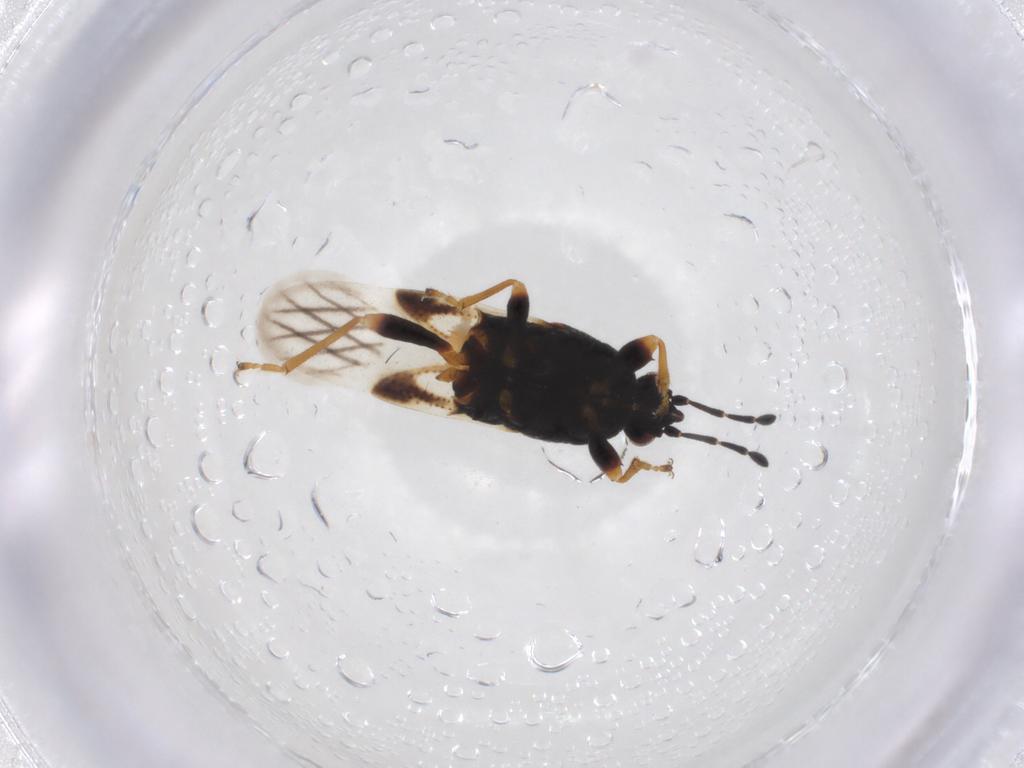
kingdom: Animalia
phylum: Arthropoda
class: Insecta
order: Hemiptera
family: Blissidae
